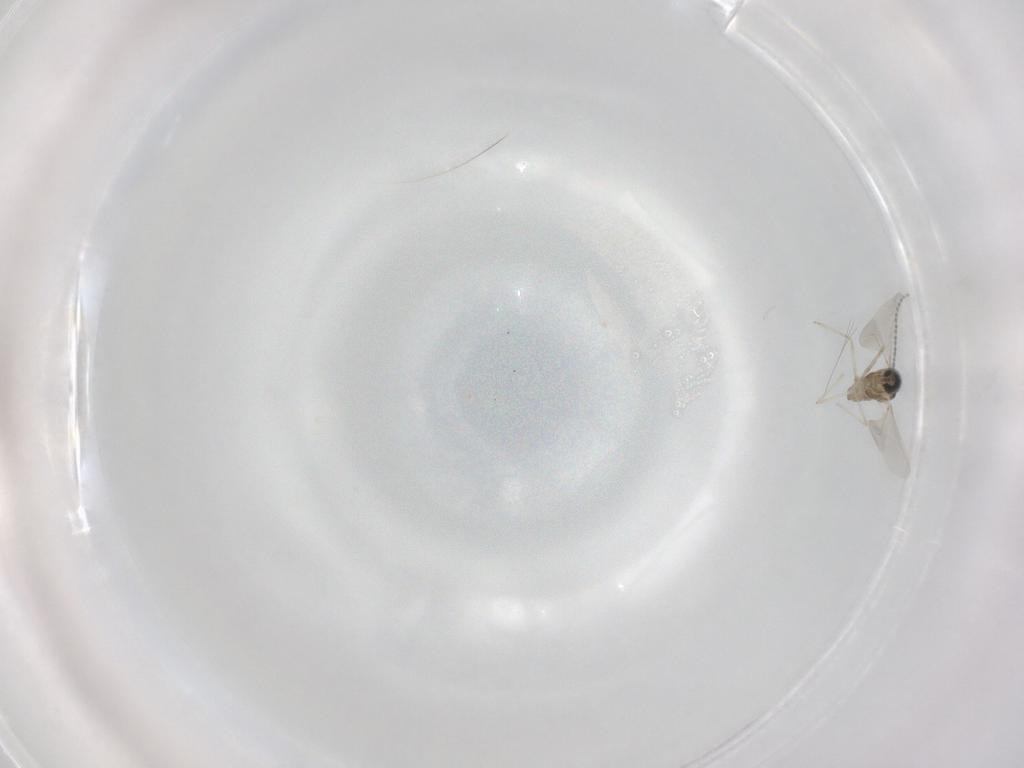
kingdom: Animalia
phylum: Arthropoda
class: Insecta
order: Diptera
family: Cecidomyiidae
